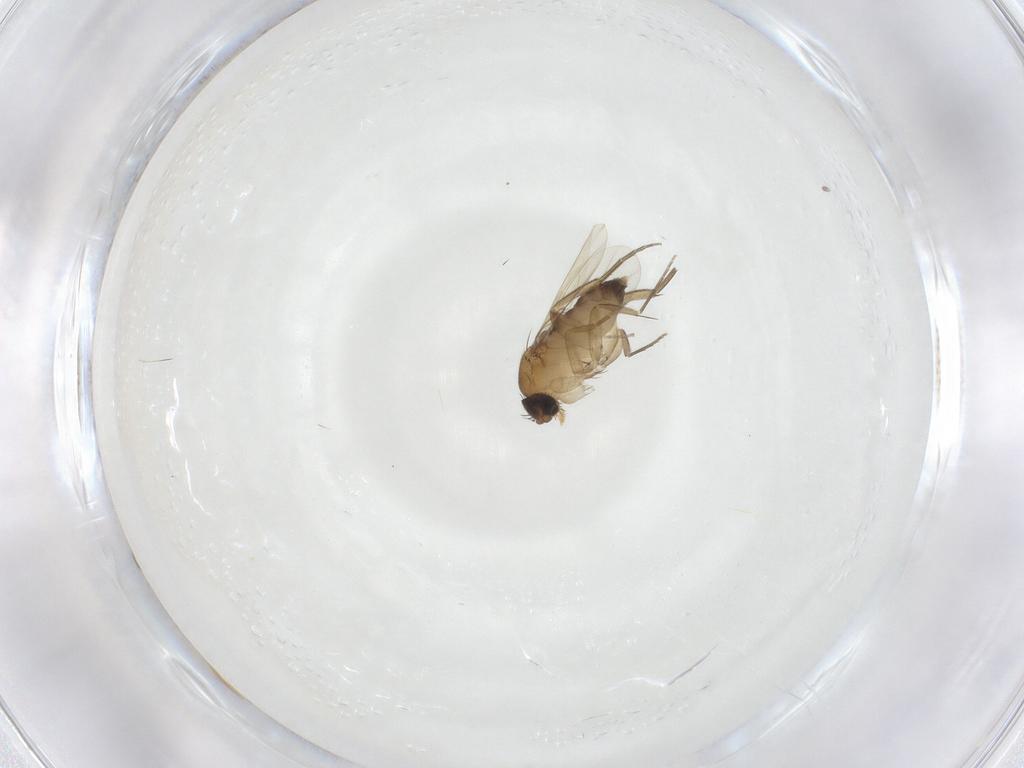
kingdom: Animalia
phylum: Arthropoda
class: Insecta
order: Diptera
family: Phoridae
